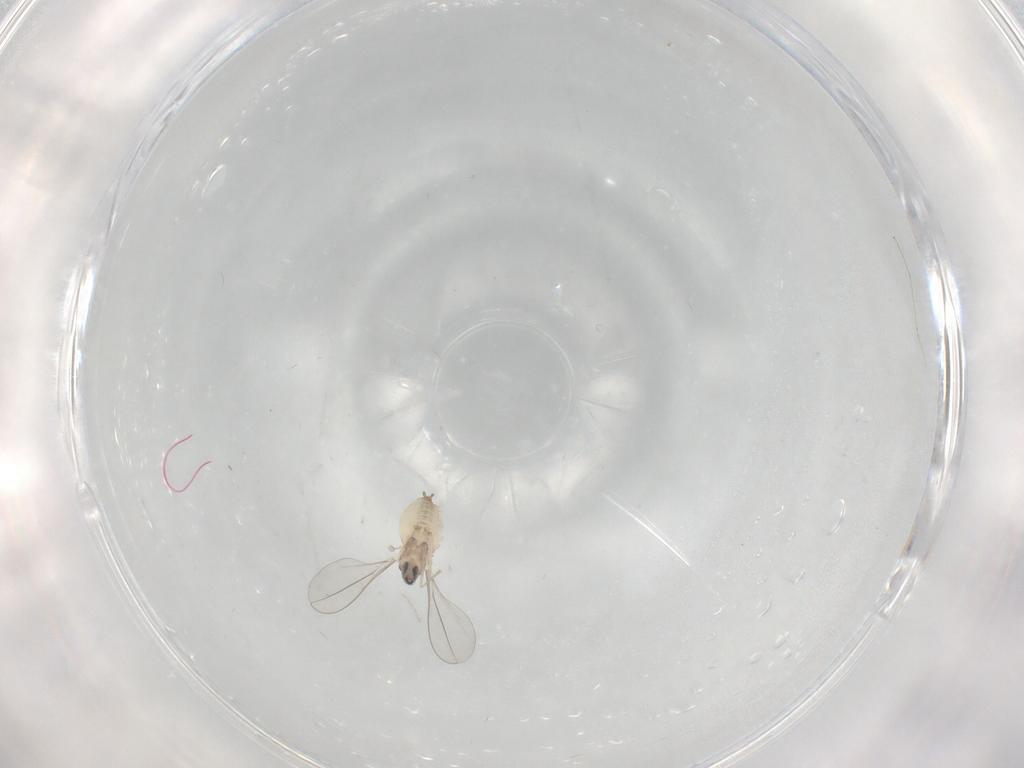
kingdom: Animalia
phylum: Arthropoda
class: Insecta
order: Diptera
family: Cecidomyiidae
